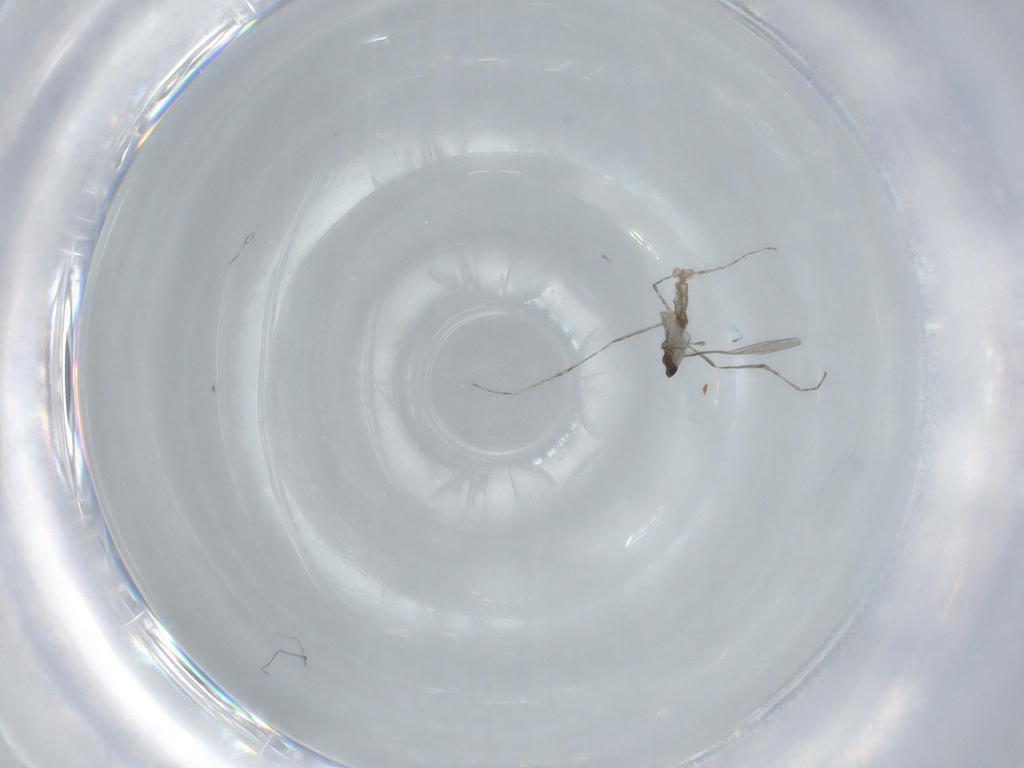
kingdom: Animalia
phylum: Arthropoda
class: Insecta
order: Diptera
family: Cecidomyiidae
